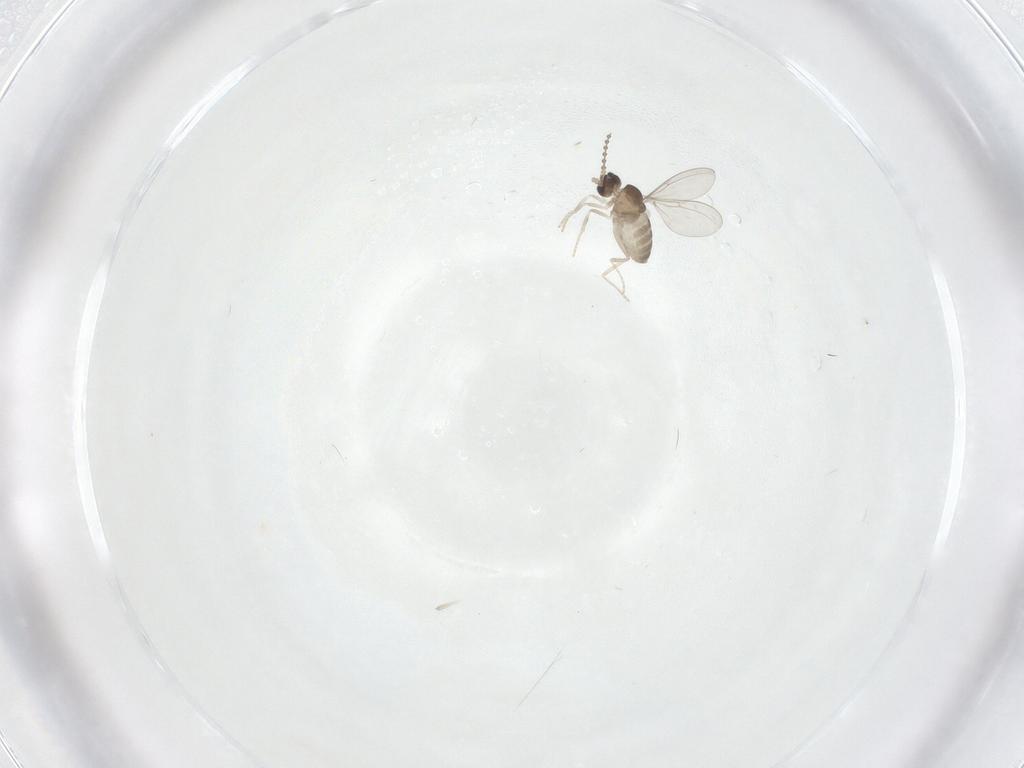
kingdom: Animalia
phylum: Arthropoda
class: Insecta
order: Diptera
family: Cecidomyiidae
